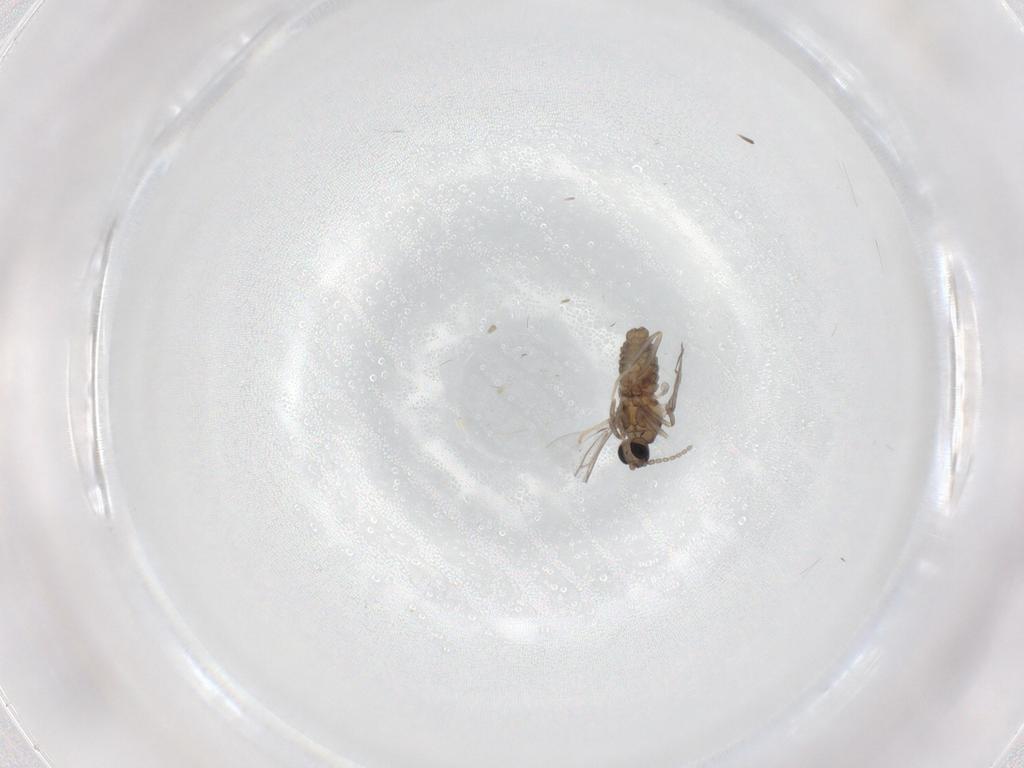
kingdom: Animalia
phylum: Arthropoda
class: Insecta
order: Diptera
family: Cecidomyiidae
